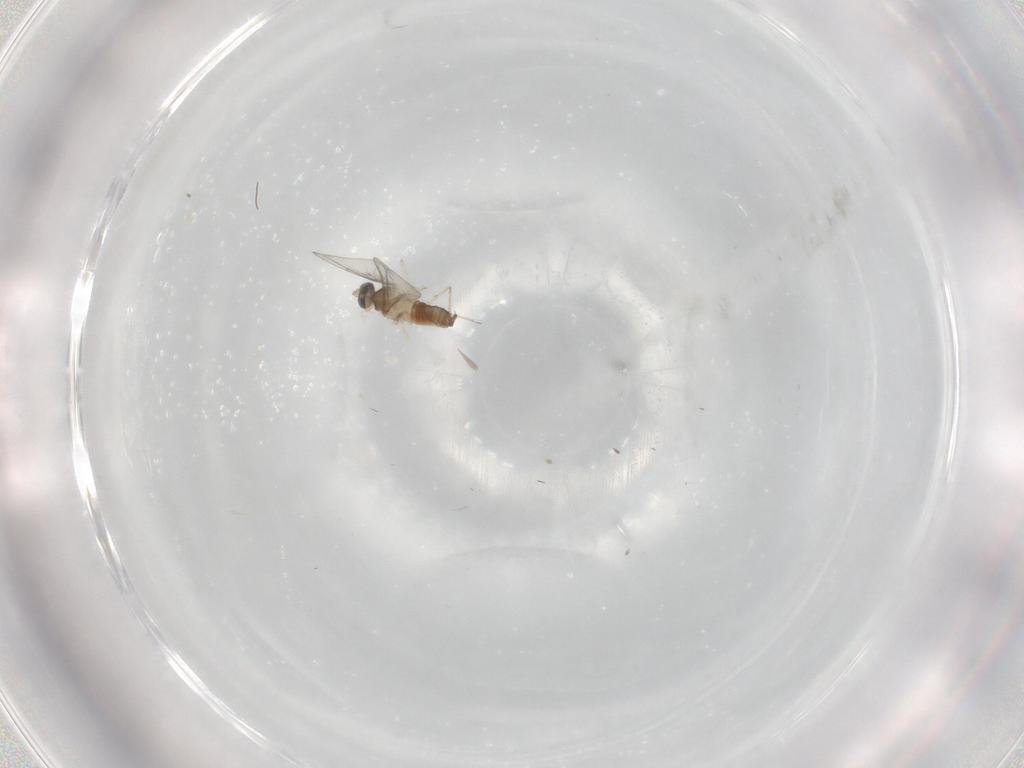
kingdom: Animalia
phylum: Arthropoda
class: Insecta
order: Diptera
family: Cecidomyiidae
